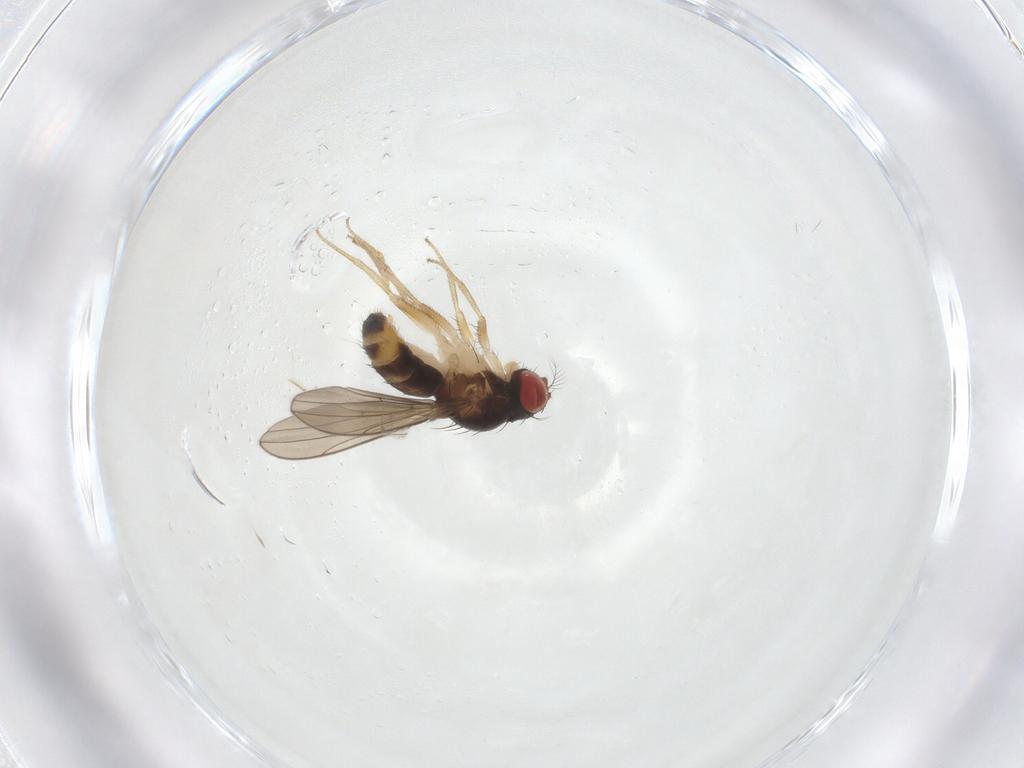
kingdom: Animalia
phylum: Arthropoda
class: Insecta
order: Diptera
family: Drosophilidae
